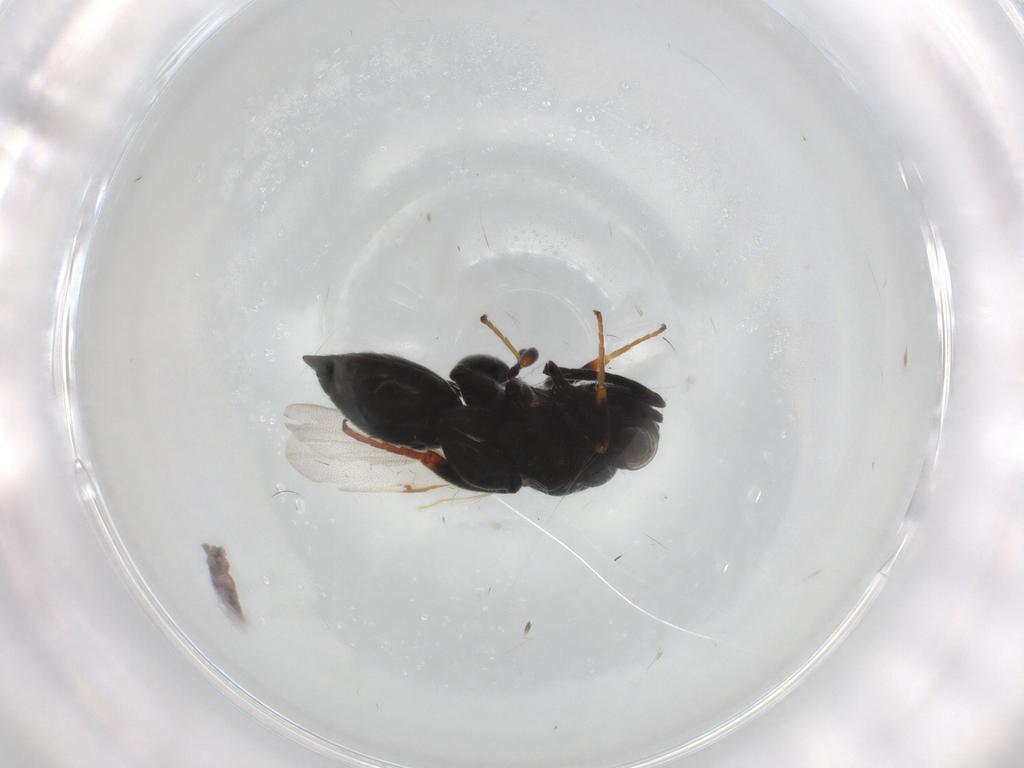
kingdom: Animalia
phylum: Arthropoda
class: Insecta
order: Hymenoptera
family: Chalcididae
